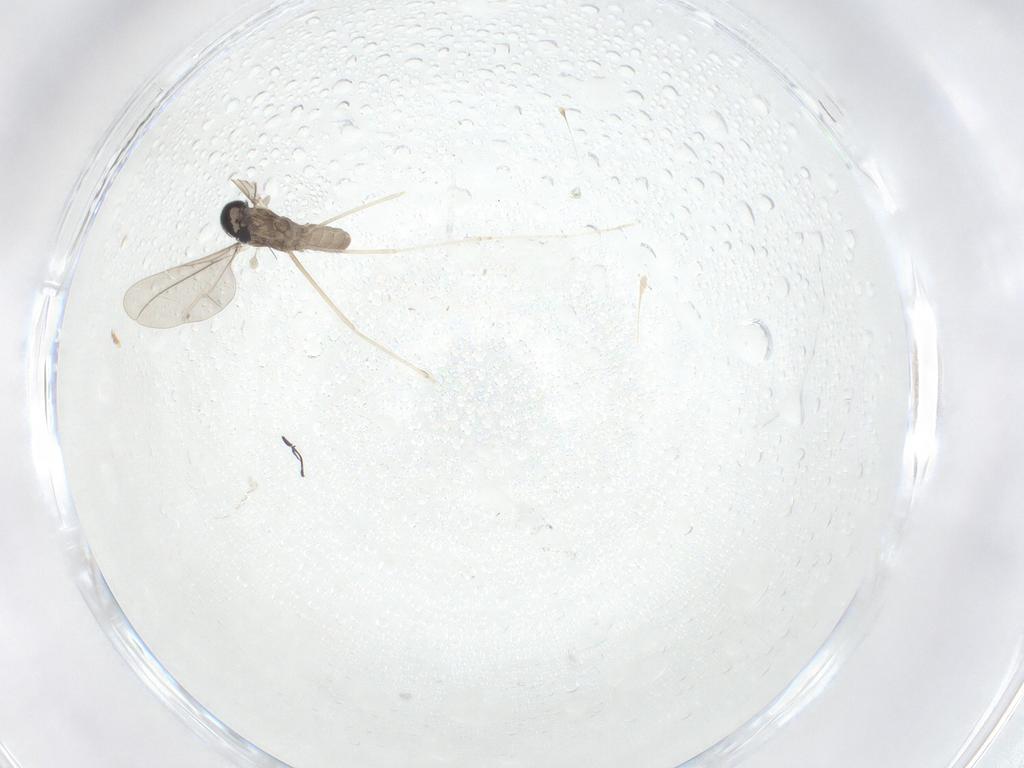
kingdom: Animalia
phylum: Arthropoda
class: Insecta
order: Diptera
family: Cecidomyiidae
